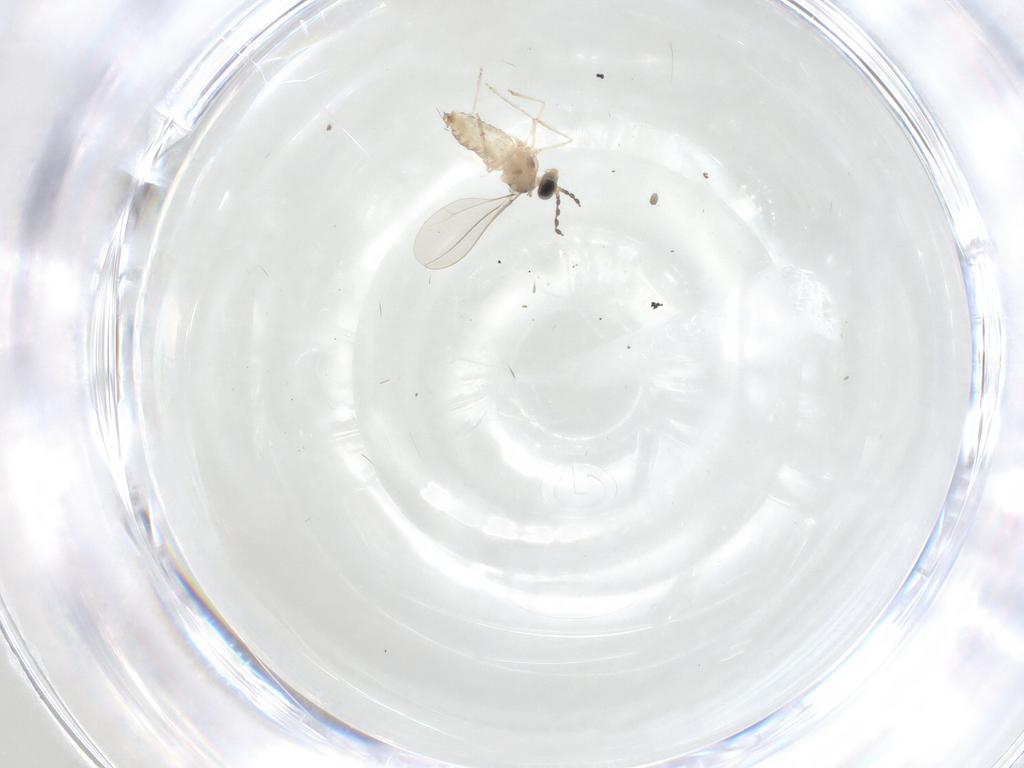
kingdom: Animalia
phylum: Arthropoda
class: Insecta
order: Diptera
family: Cecidomyiidae
